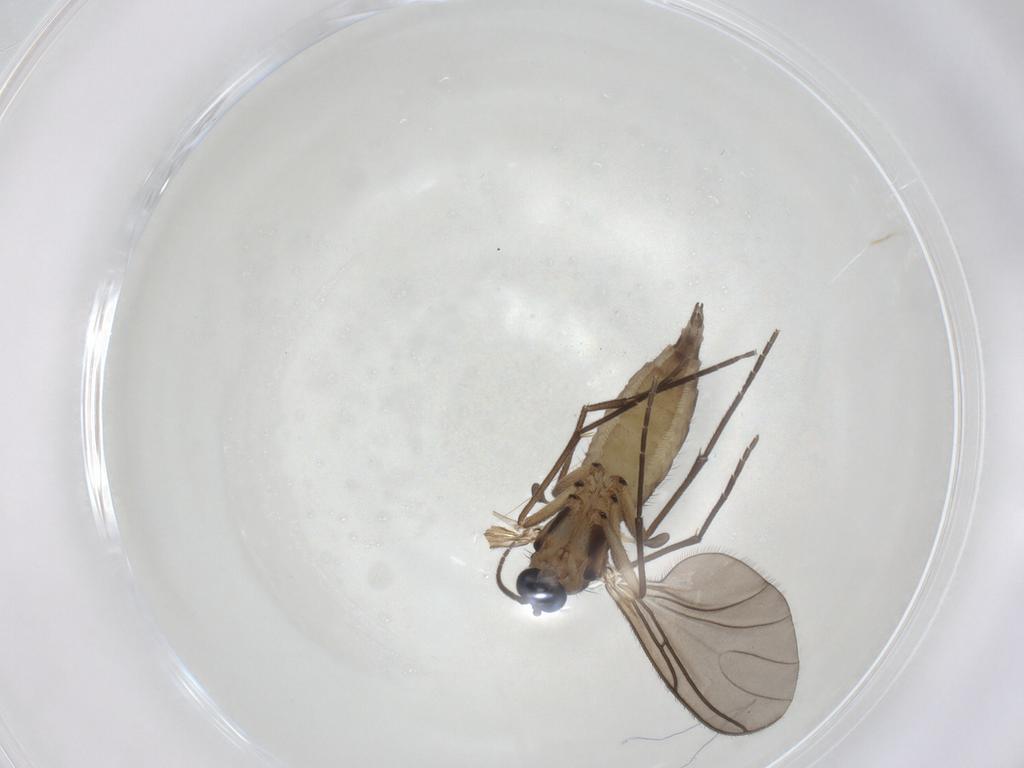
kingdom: Animalia
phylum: Arthropoda
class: Insecta
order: Diptera
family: Sciaridae
